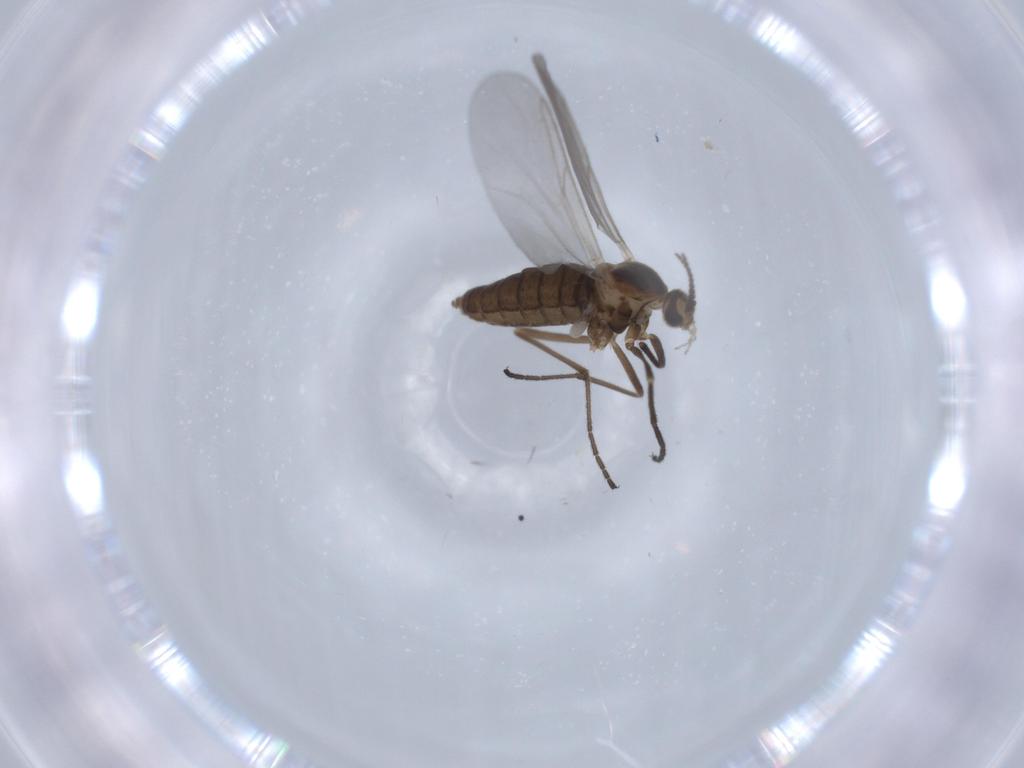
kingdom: Animalia
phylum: Arthropoda
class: Insecta
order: Diptera
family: Cecidomyiidae
